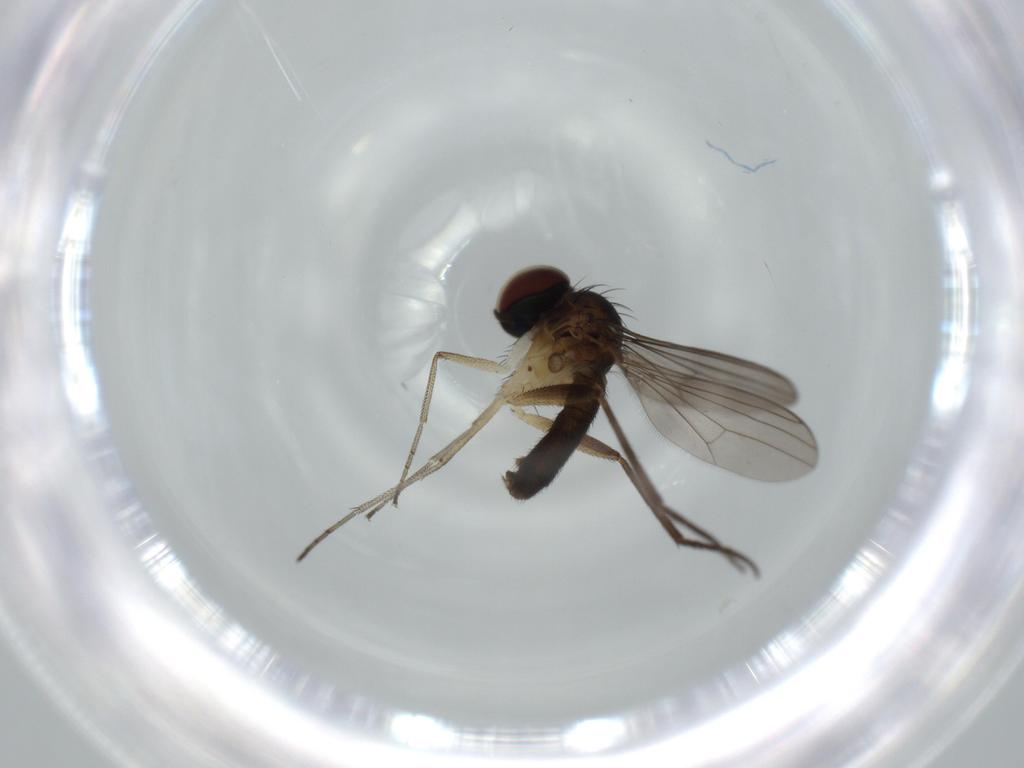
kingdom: Animalia
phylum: Arthropoda
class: Insecta
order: Diptera
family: Dolichopodidae
